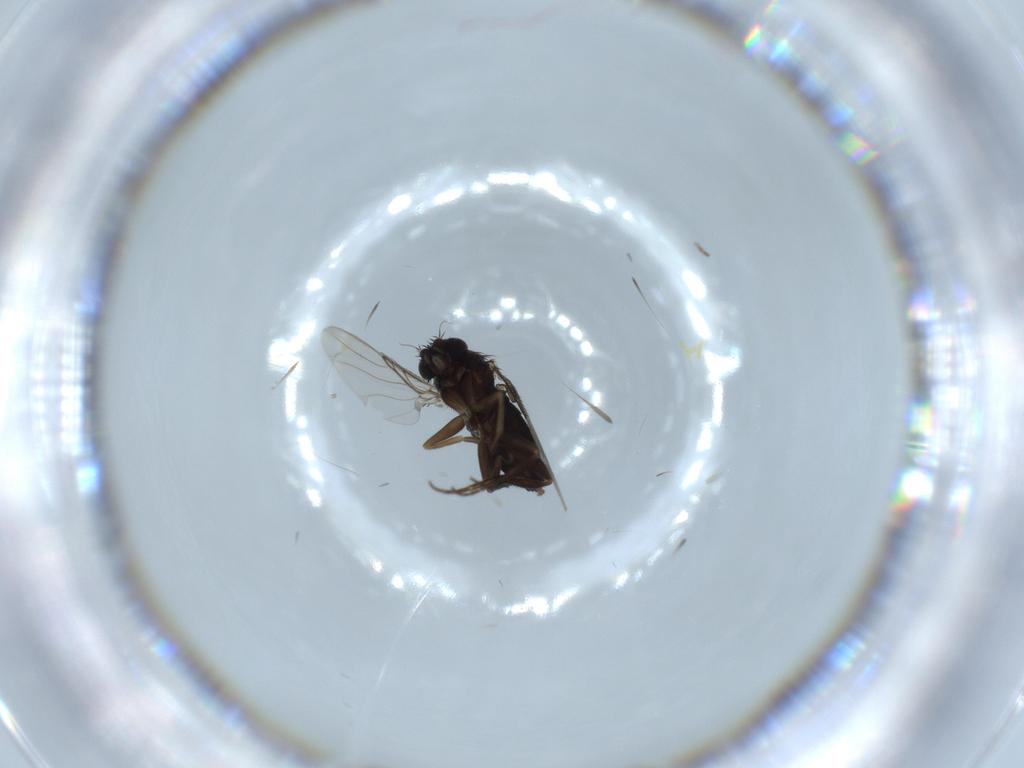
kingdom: Animalia
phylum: Arthropoda
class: Insecta
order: Diptera
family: Phoridae
